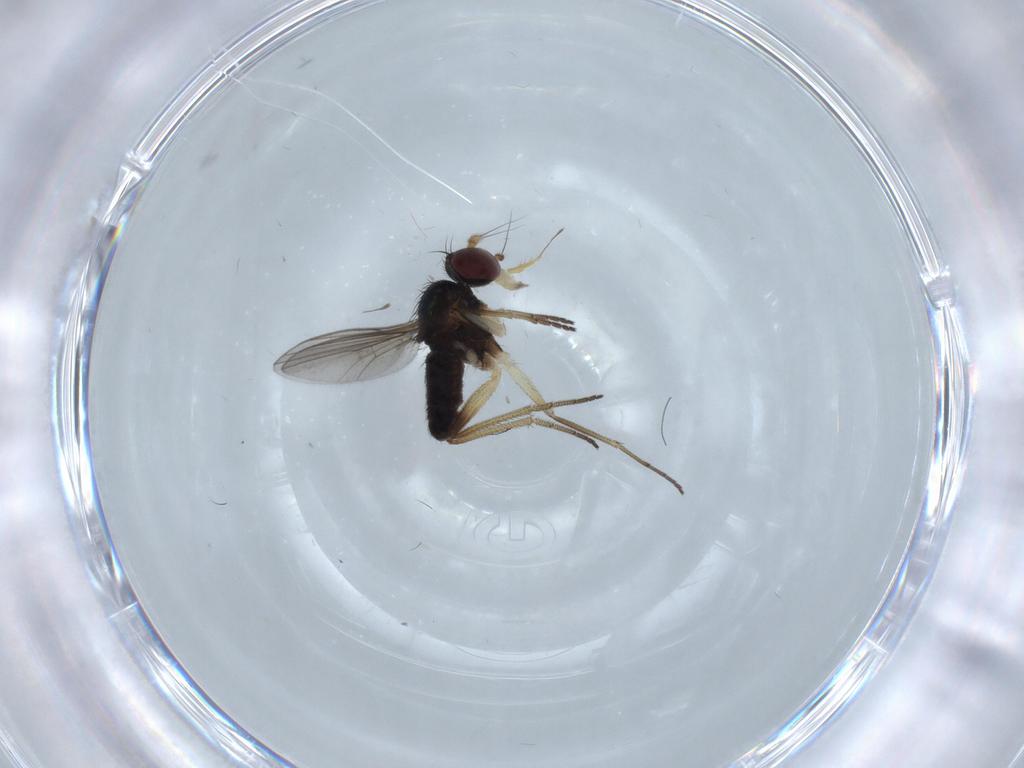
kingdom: Animalia
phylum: Arthropoda
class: Insecta
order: Diptera
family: Dolichopodidae
